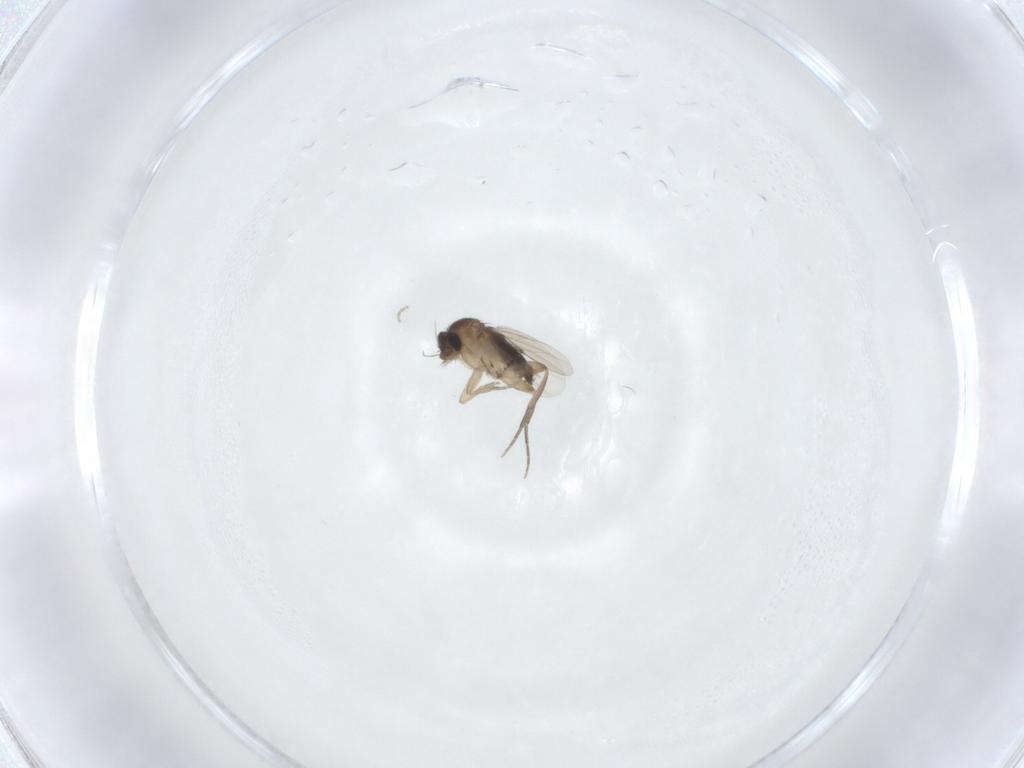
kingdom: Animalia
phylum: Arthropoda
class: Insecta
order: Diptera
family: Phoridae
